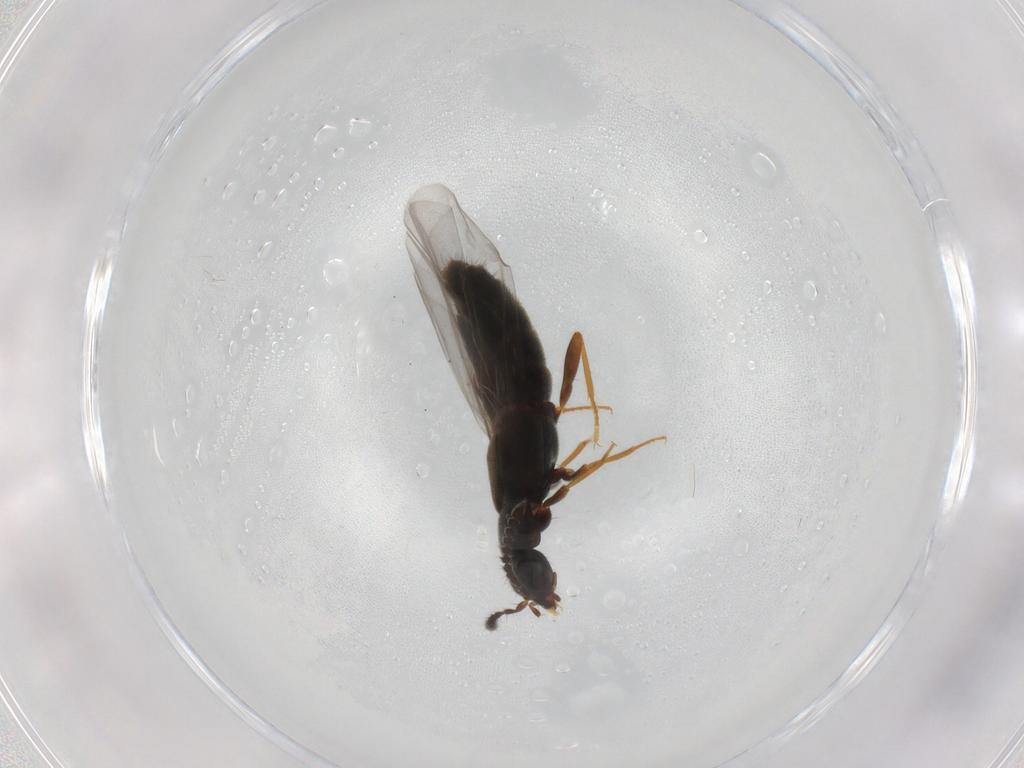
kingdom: Animalia
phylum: Arthropoda
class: Insecta
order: Coleoptera
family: Staphylinidae
